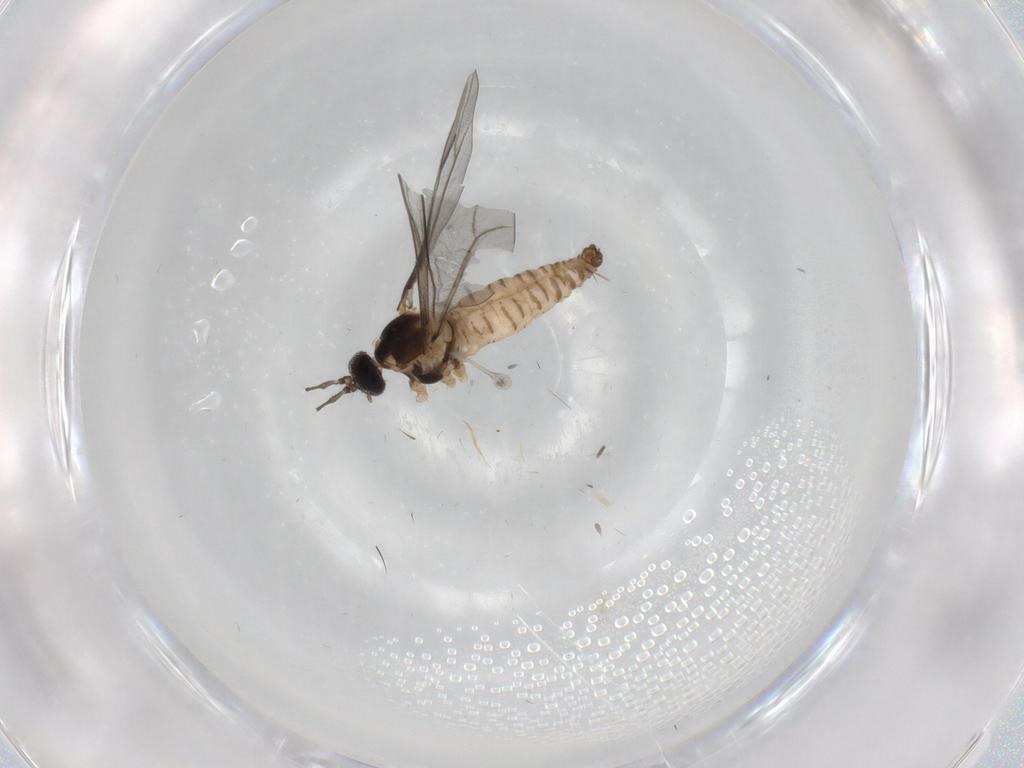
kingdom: Animalia
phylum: Arthropoda
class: Insecta
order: Diptera
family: Cecidomyiidae
